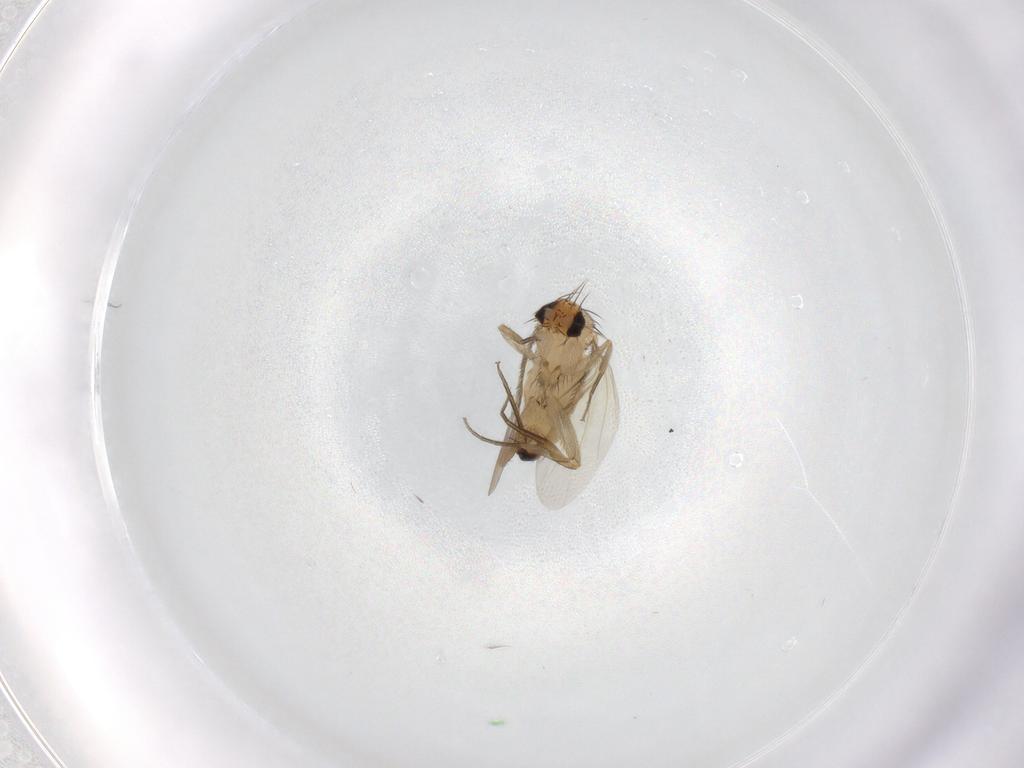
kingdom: Animalia
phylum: Arthropoda
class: Insecta
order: Diptera
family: Phoridae
